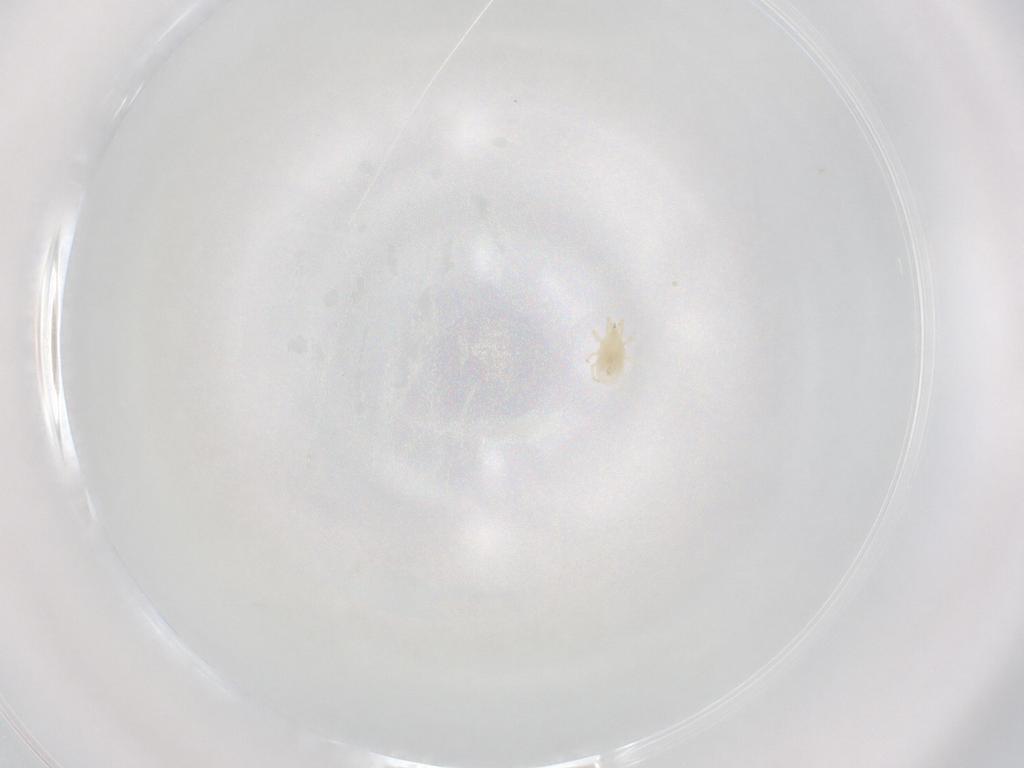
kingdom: Animalia
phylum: Arthropoda
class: Arachnida
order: Mesostigmata
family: Phytoseiidae
